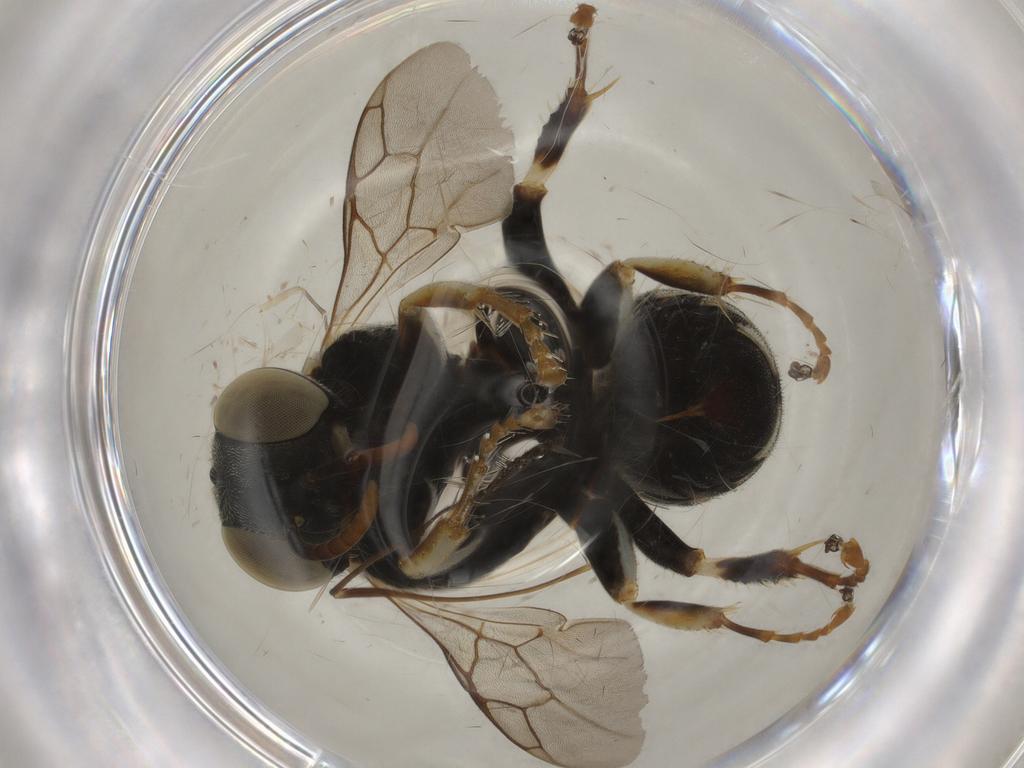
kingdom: Animalia
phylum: Arthropoda
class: Insecta
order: Hymenoptera
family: Crabronidae
